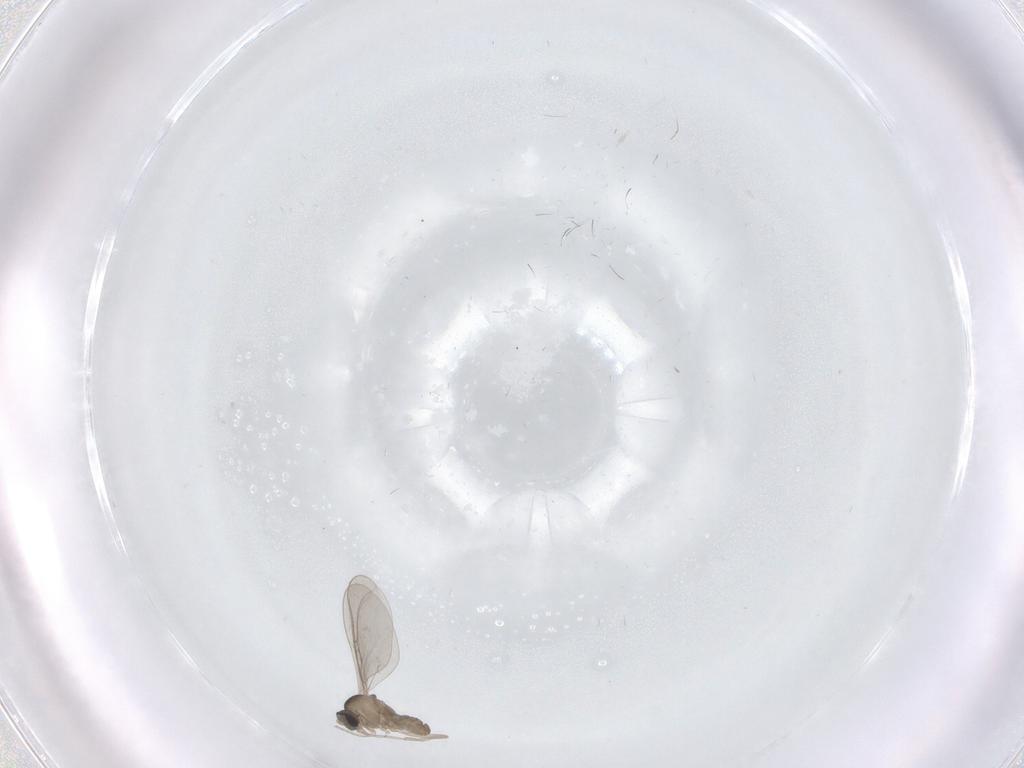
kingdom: Animalia
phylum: Arthropoda
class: Insecta
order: Diptera
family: Cecidomyiidae
